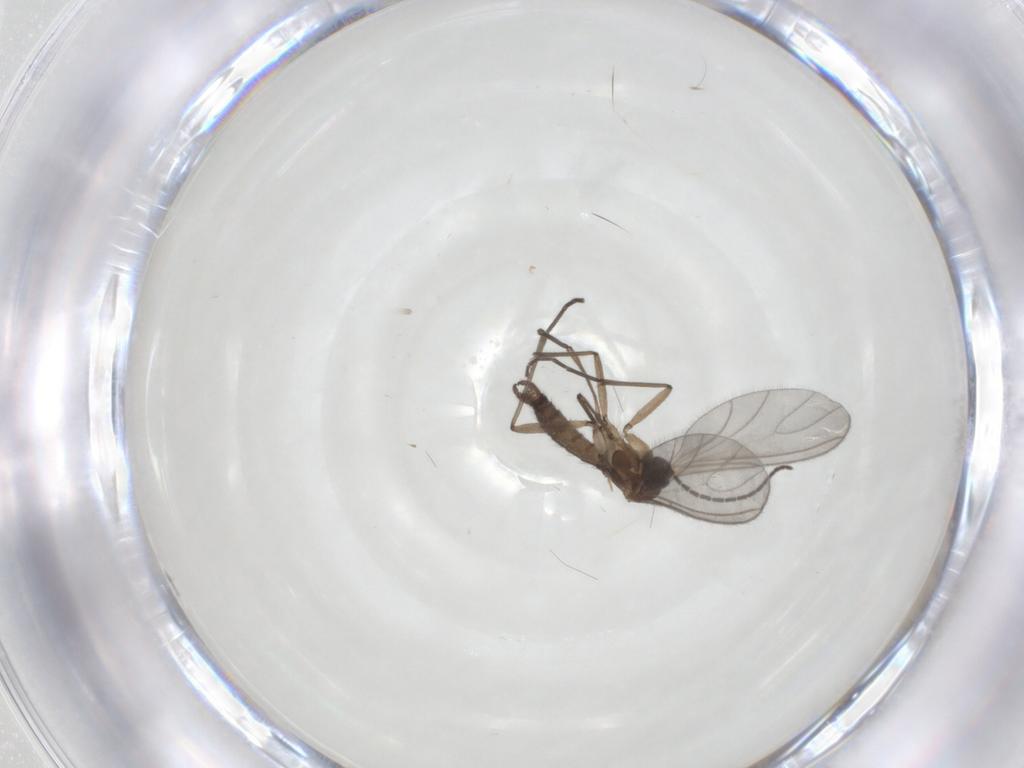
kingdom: Animalia
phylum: Arthropoda
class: Insecta
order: Diptera
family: Sciaridae
